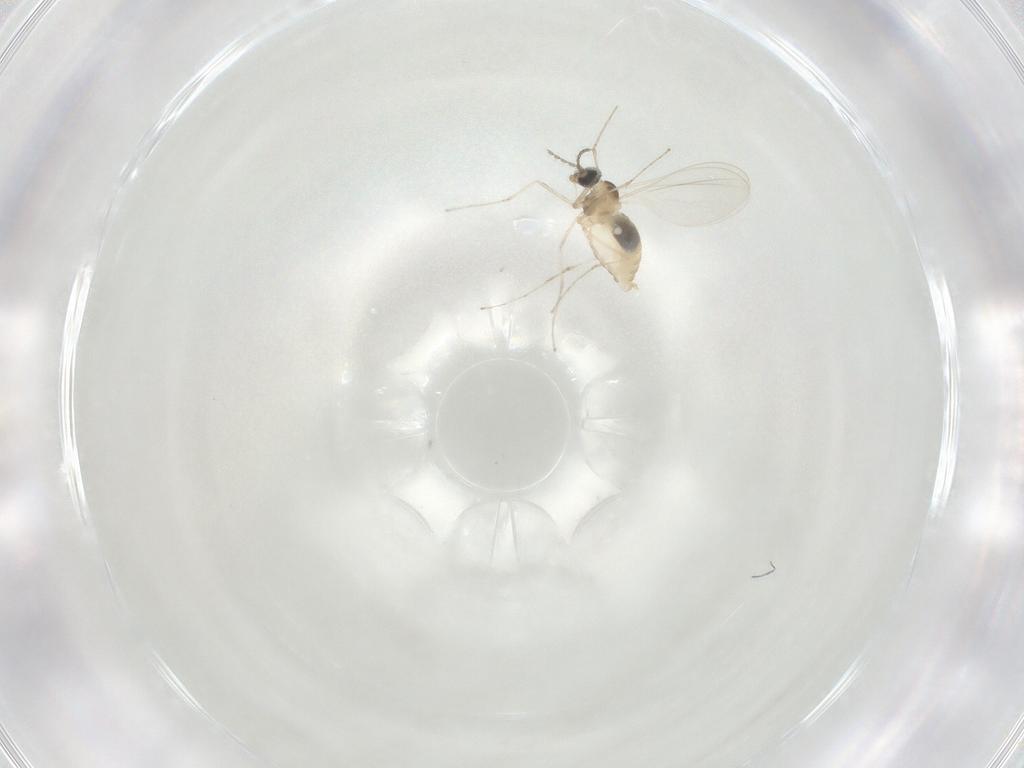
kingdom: Animalia
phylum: Arthropoda
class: Insecta
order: Diptera
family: Cecidomyiidae
